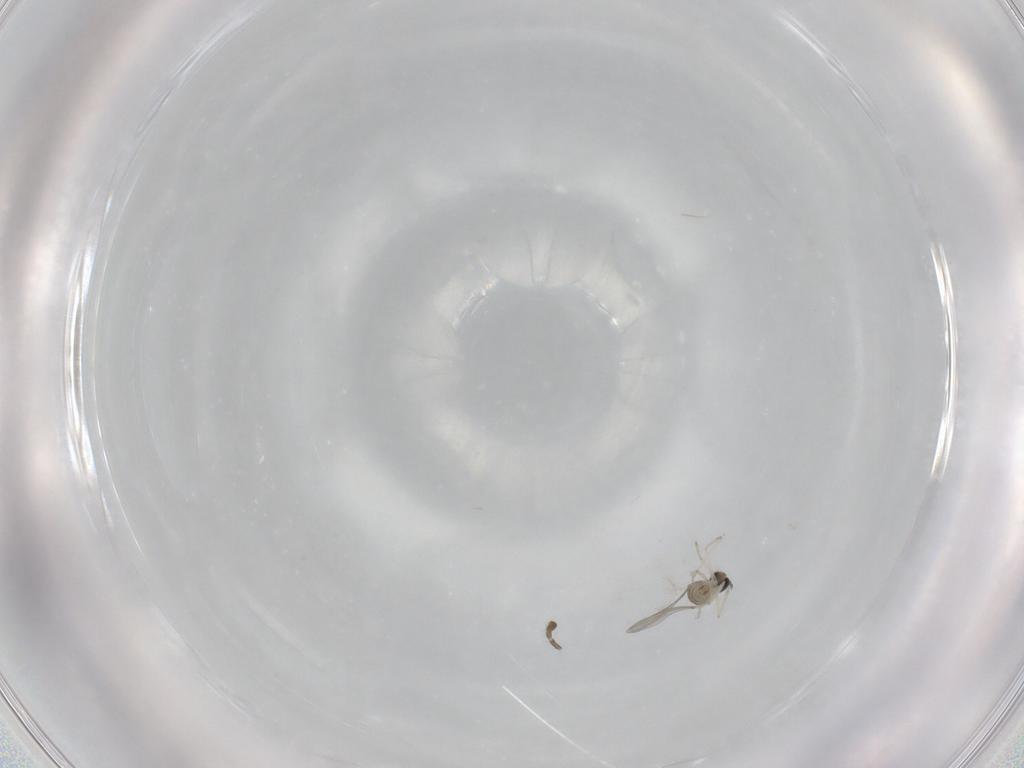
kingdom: Animalia
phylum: Arthropoda
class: Insecta
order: Diptera
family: Cecidomyiidae
